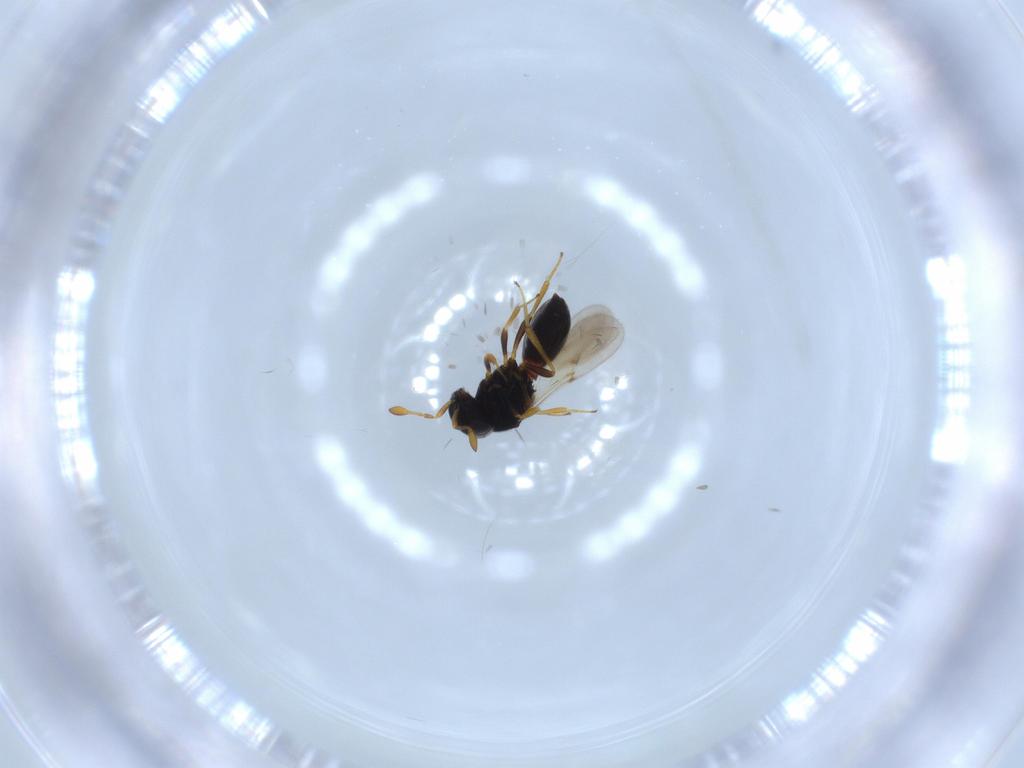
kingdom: Animalia
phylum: Arthropoda
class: Insecta
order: Hymenoptera
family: Scelionidae
